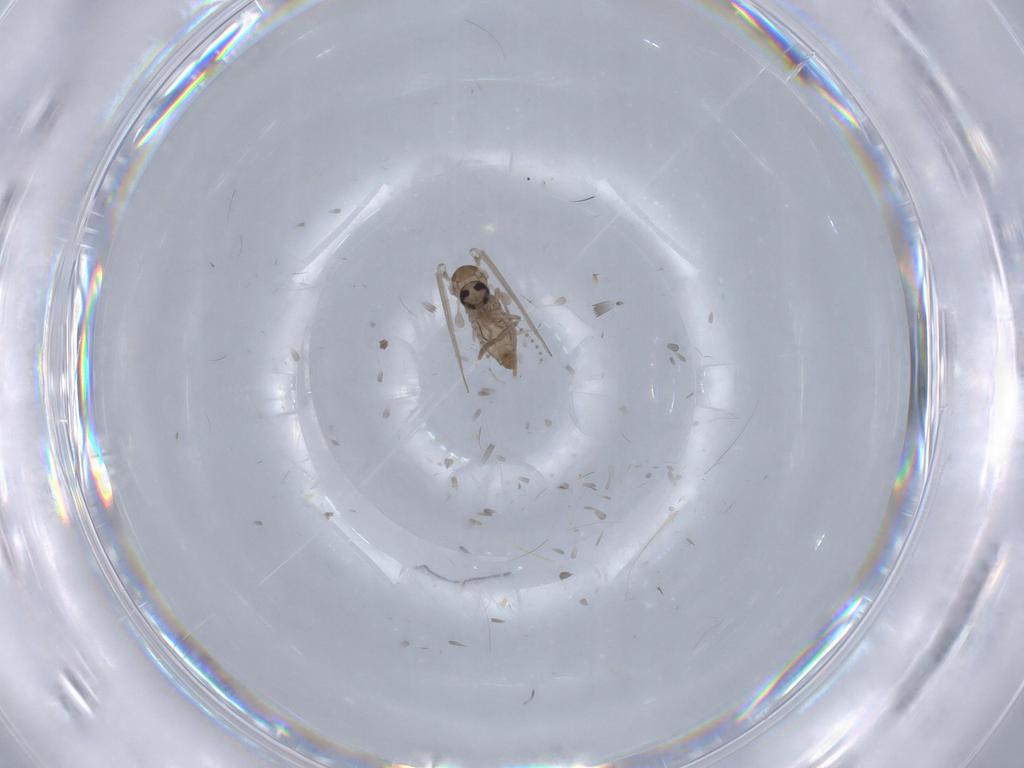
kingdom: Animalia
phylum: Arthropoda
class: Insecta
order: Diptera
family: Psychodidae
